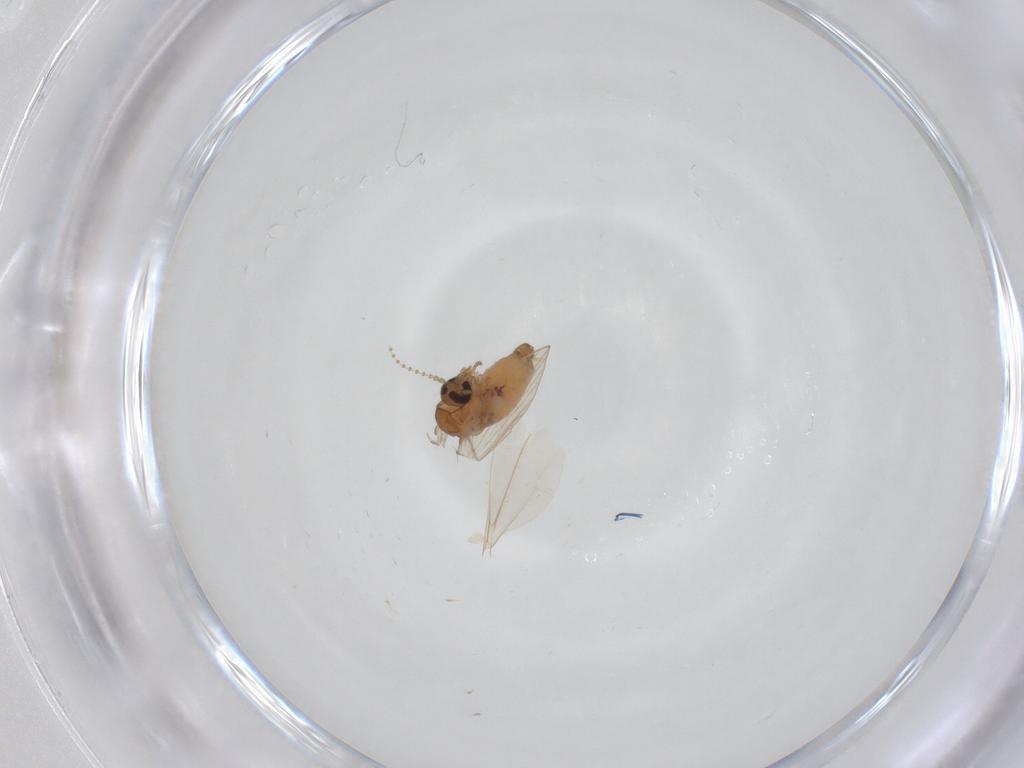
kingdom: Animalia
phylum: Arthropoda
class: Insecta
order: Diptera
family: Psychodidae
